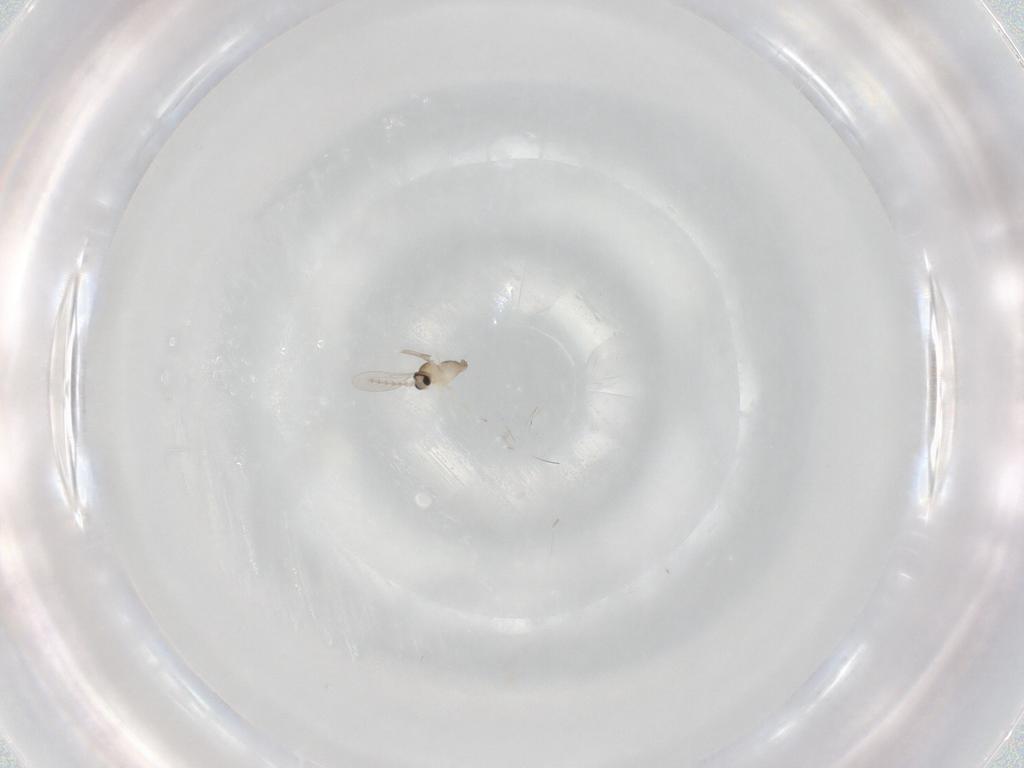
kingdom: Animalia
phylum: Arthropoda
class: Insecta
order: Diptera
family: Cecidomyiidae
